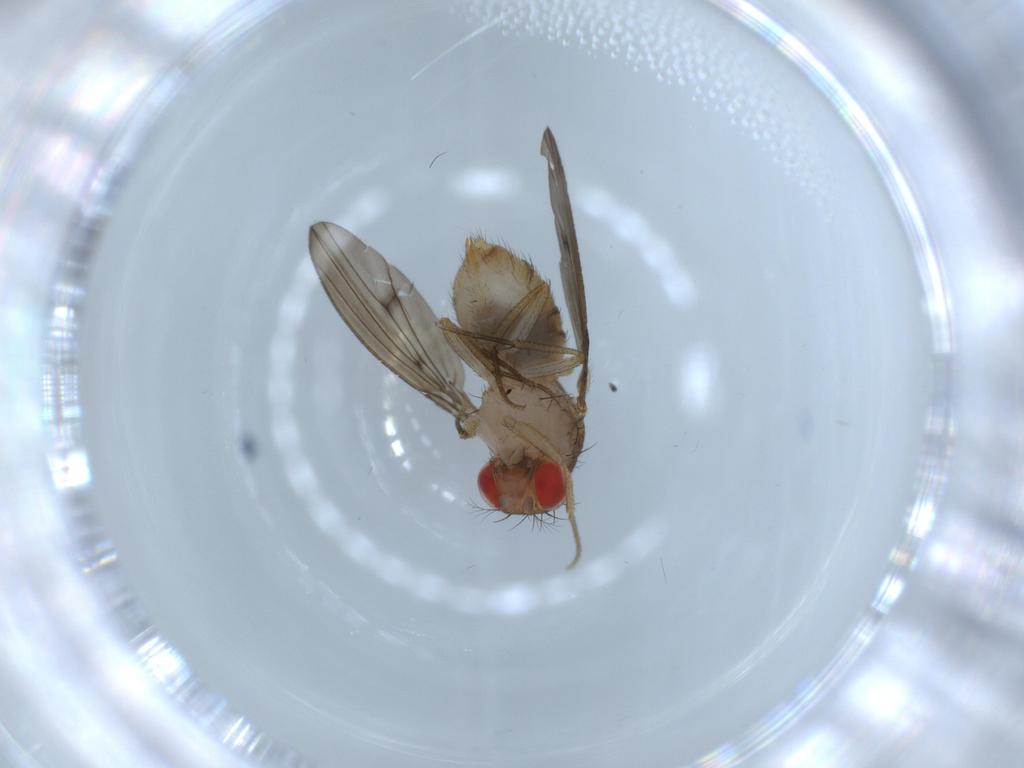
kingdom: Animalia
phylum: Arthropoda
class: Insecta
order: Diptera
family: Drosophilidae
